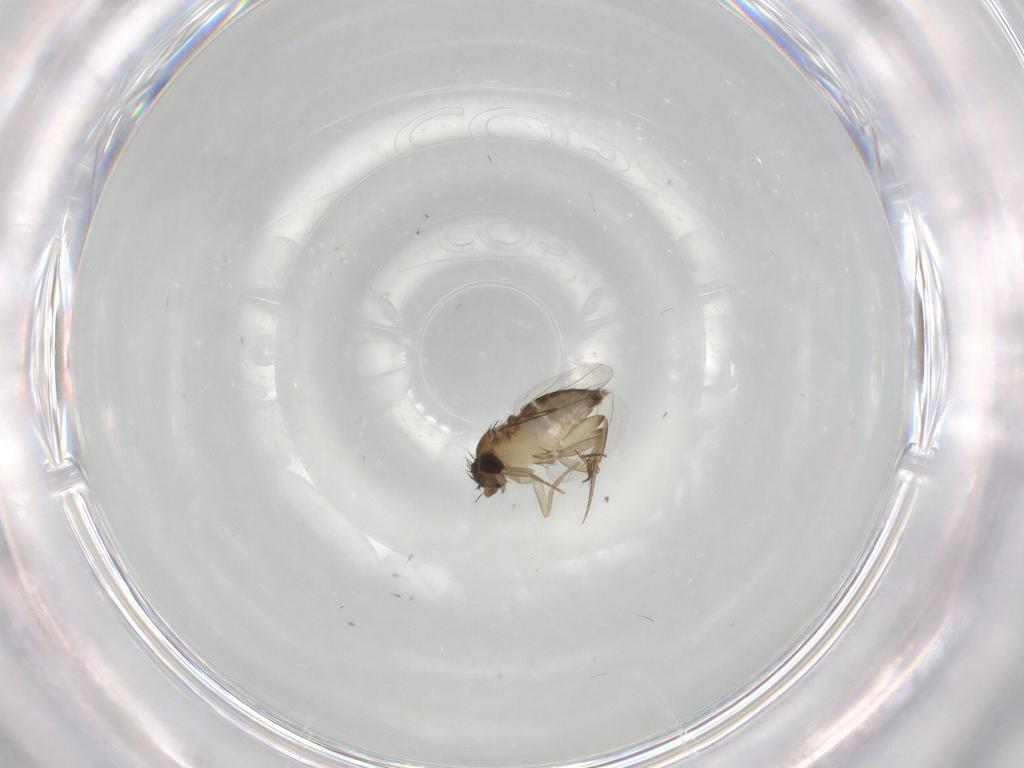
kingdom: Animalia
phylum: Arthropoda
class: Insecta
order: Diptera
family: Phoridae
